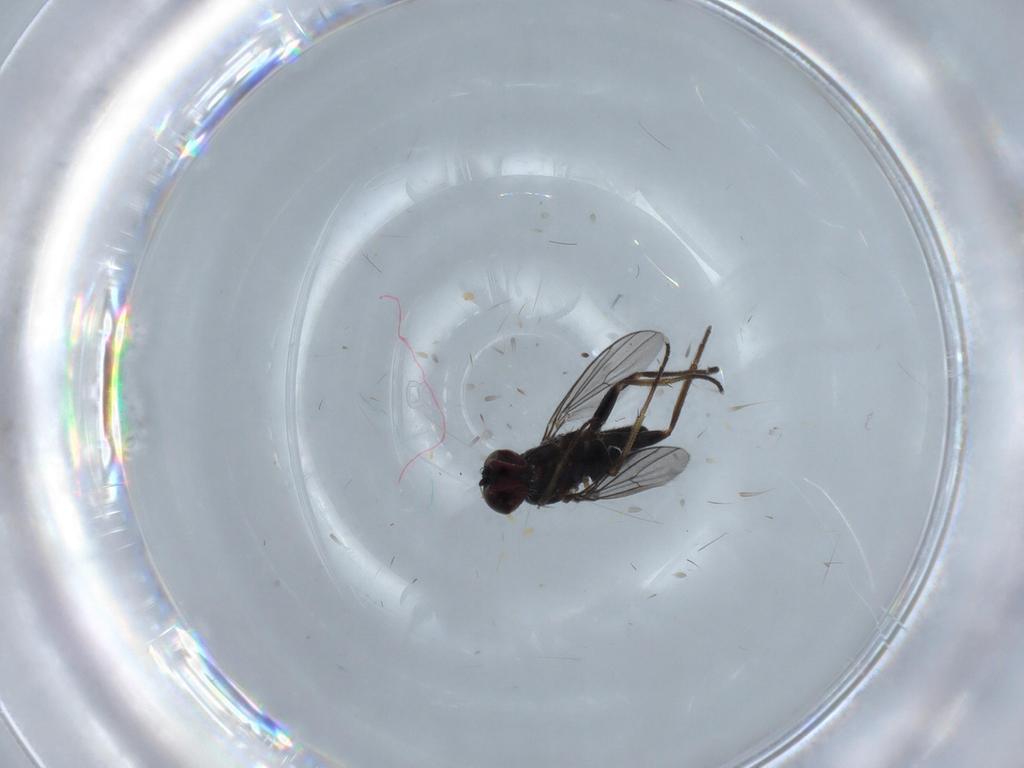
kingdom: Animalia
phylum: Arthropoda
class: Insecta
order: Diptera
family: Dolichopodidae
